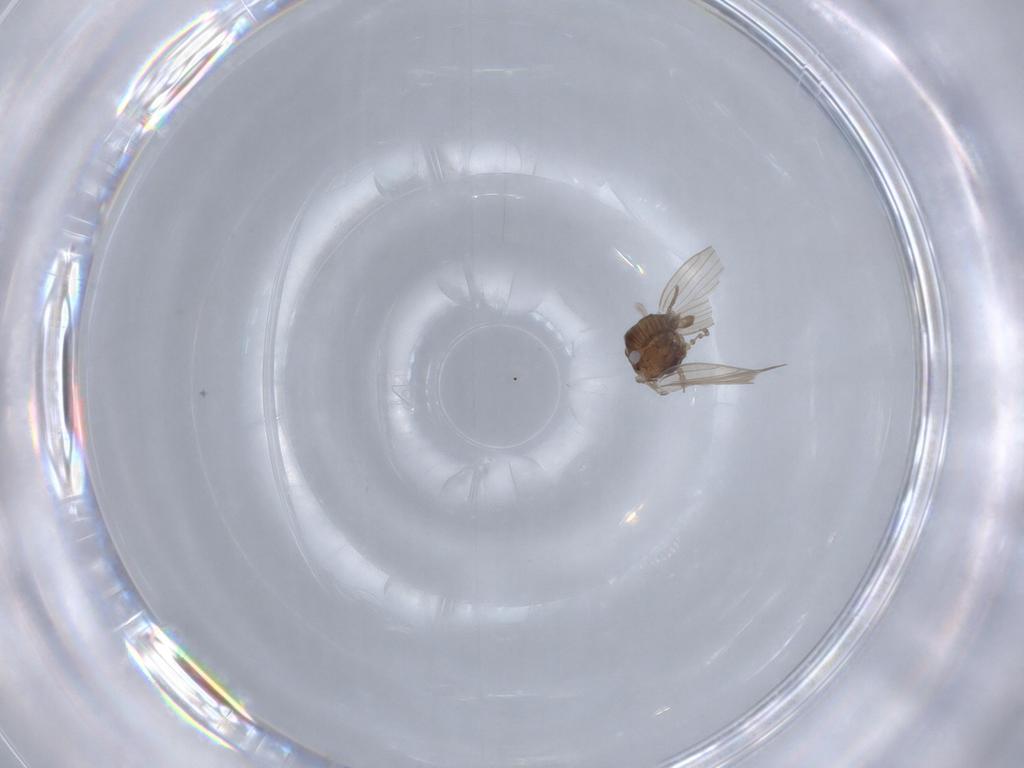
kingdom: Animalia
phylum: Arthropoda
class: Insecta
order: Diptera
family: Psychodidae
